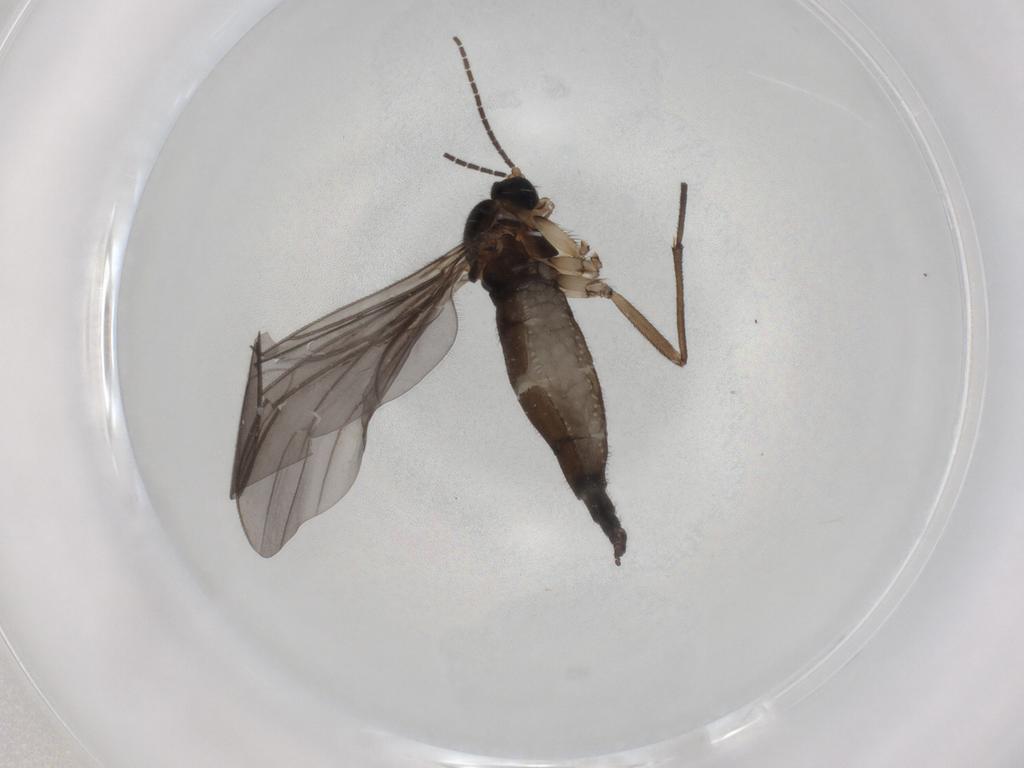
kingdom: Animalia
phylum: Arthropoda
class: Insecta
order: Diptera
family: Sciaridae
